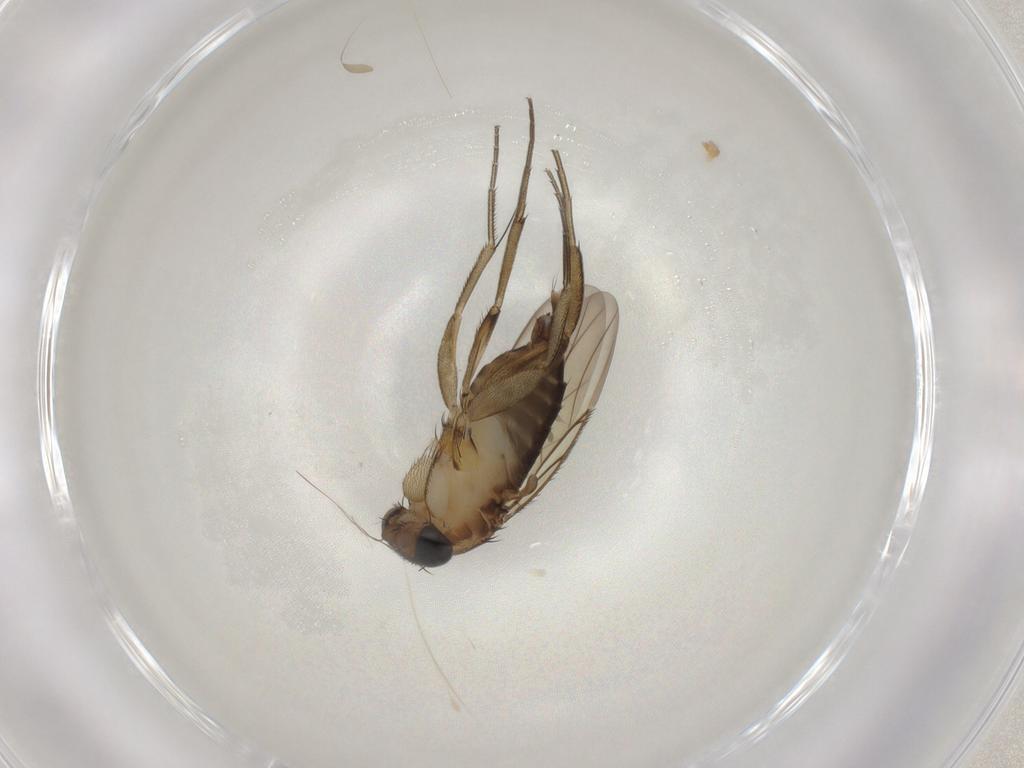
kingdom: Animalia
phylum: Arthropoda
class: Insecta
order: Diptera
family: Phoridae
